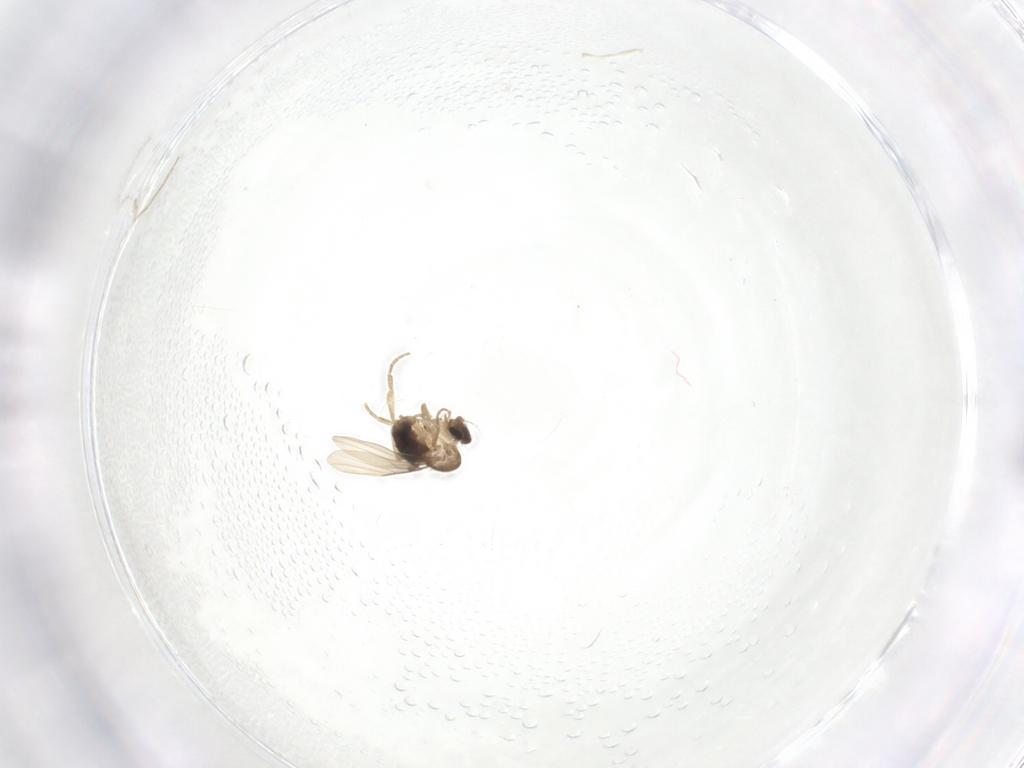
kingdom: Animalia
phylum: Arthropoda
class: Insecta
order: Diptera
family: Phoridae
